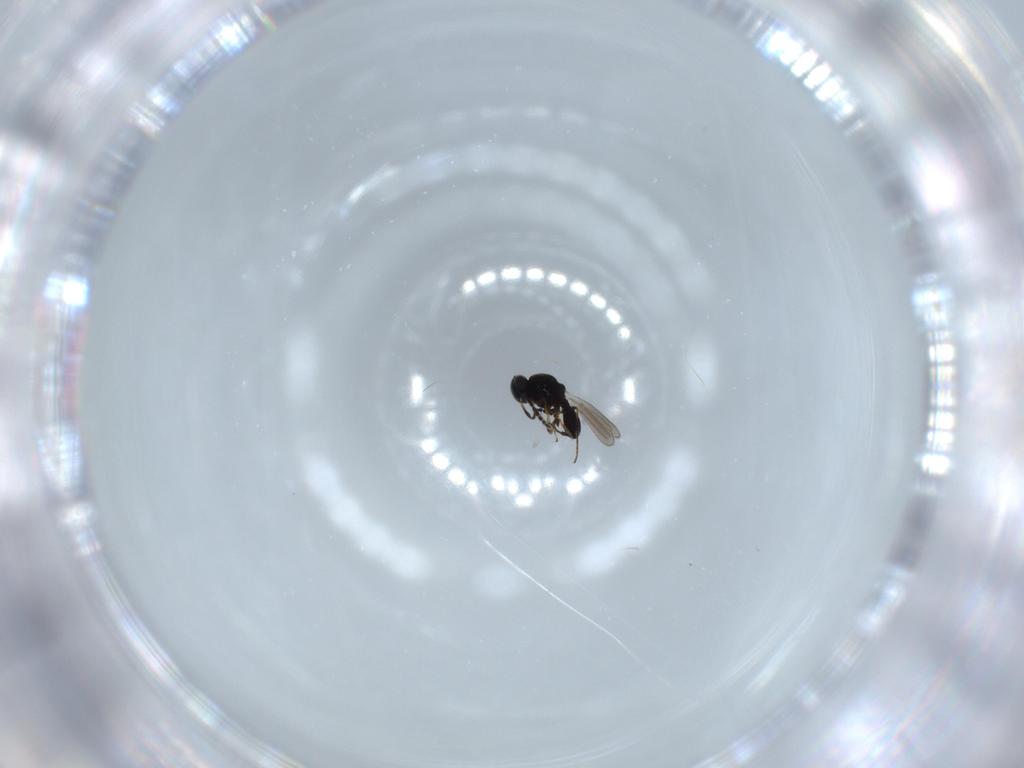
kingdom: Animalia
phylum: Arthropoda
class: Insecta
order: Hymenoptera
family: Platygastridae
